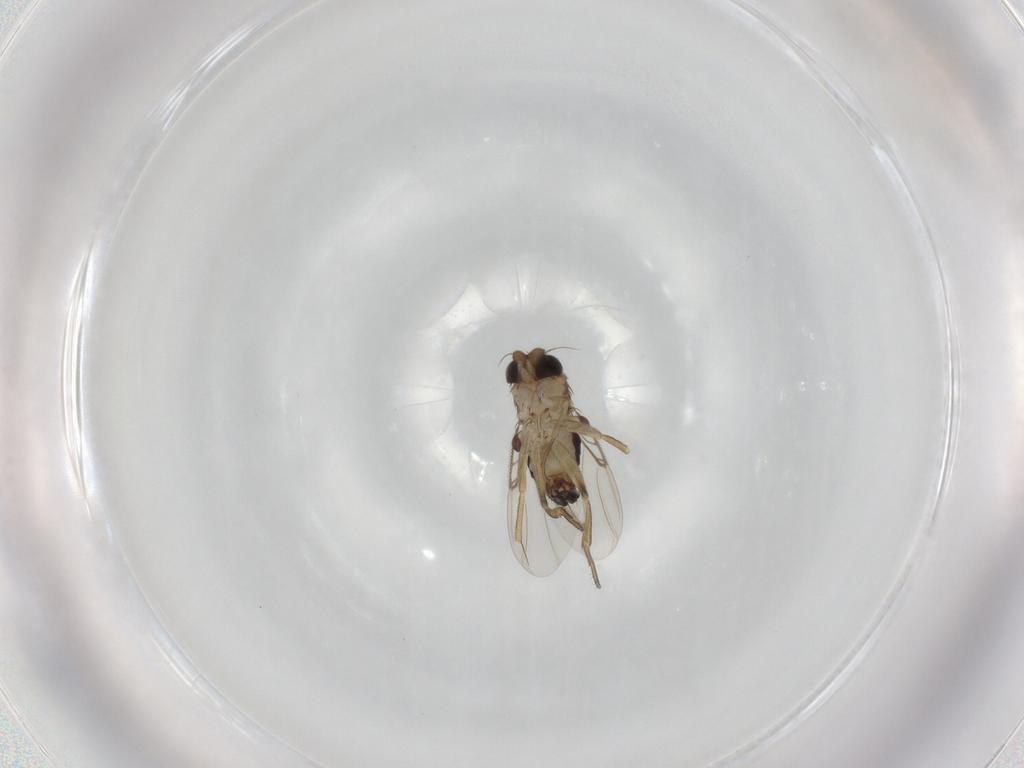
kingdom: Animalia
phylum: Arthropoda
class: Insecta
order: Diptera
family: Phoridae
